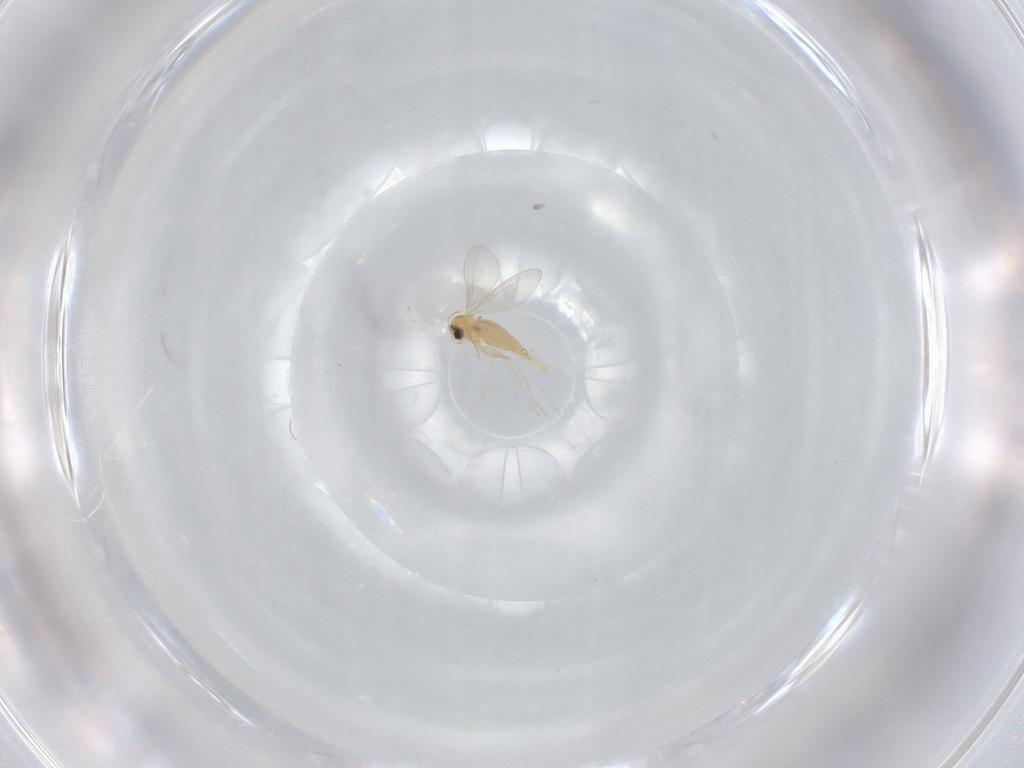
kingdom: Animalia
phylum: Arthropoda
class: Insecta
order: Diptera
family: Cecidomyiidae
